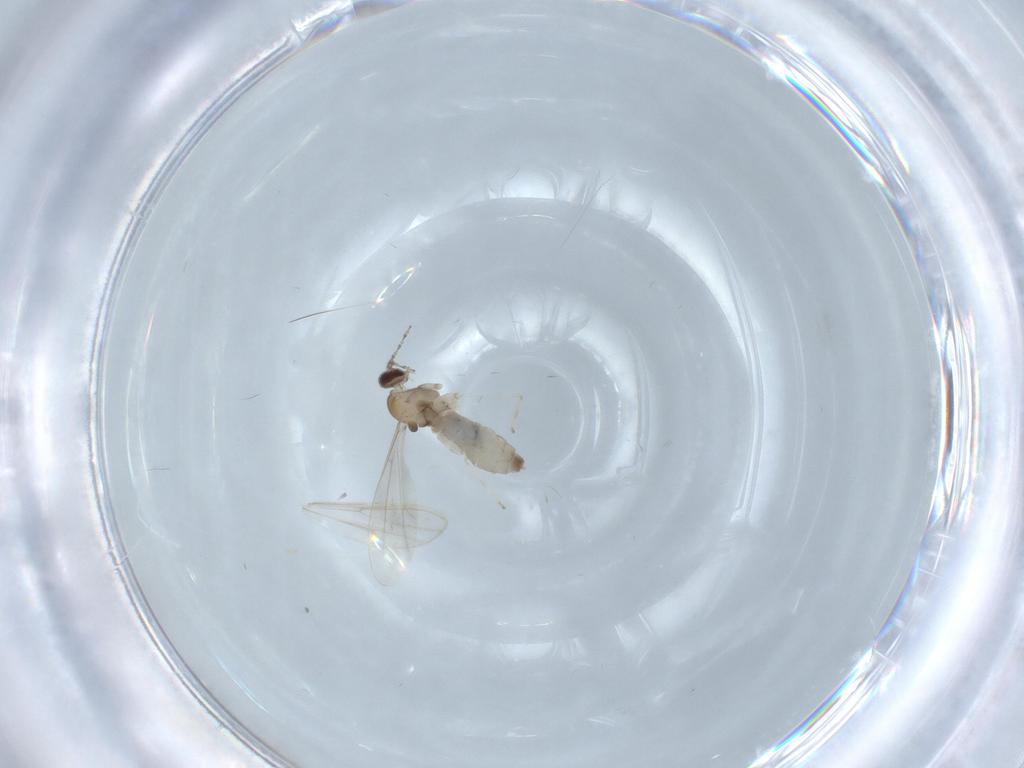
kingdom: Animalia
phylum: Arthropoda
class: Insecta
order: Diptera
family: Cecidomyiidae
